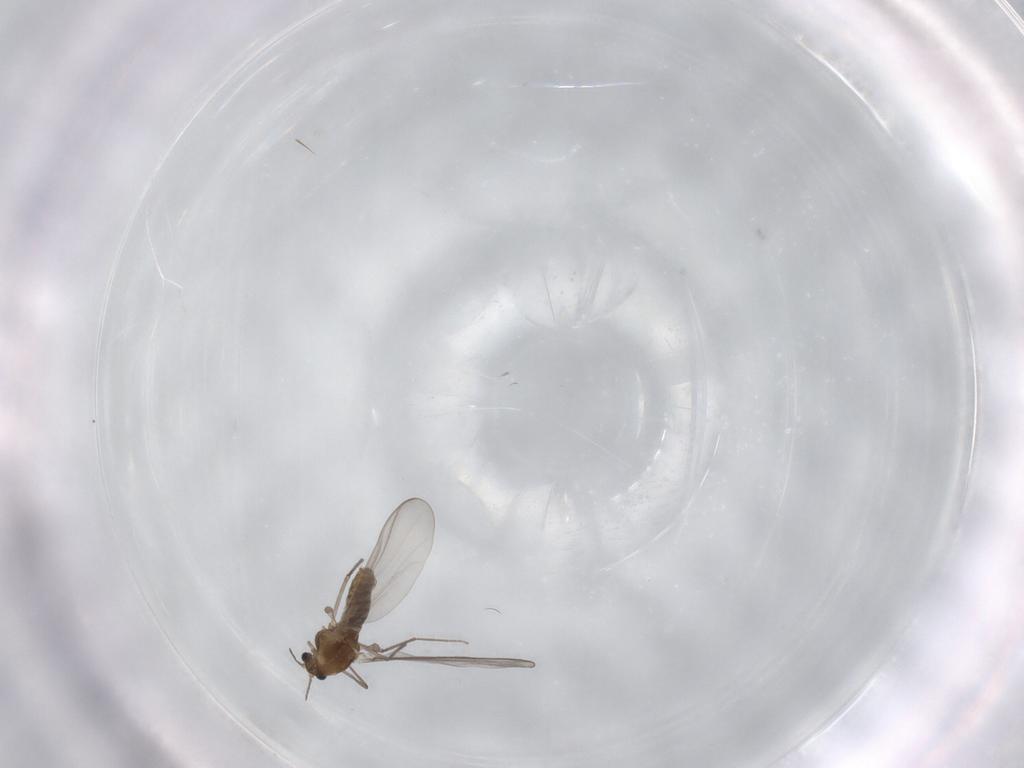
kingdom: Animalia
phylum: Arthropoda
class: Insecta
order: Diptera
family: Chironomidae
